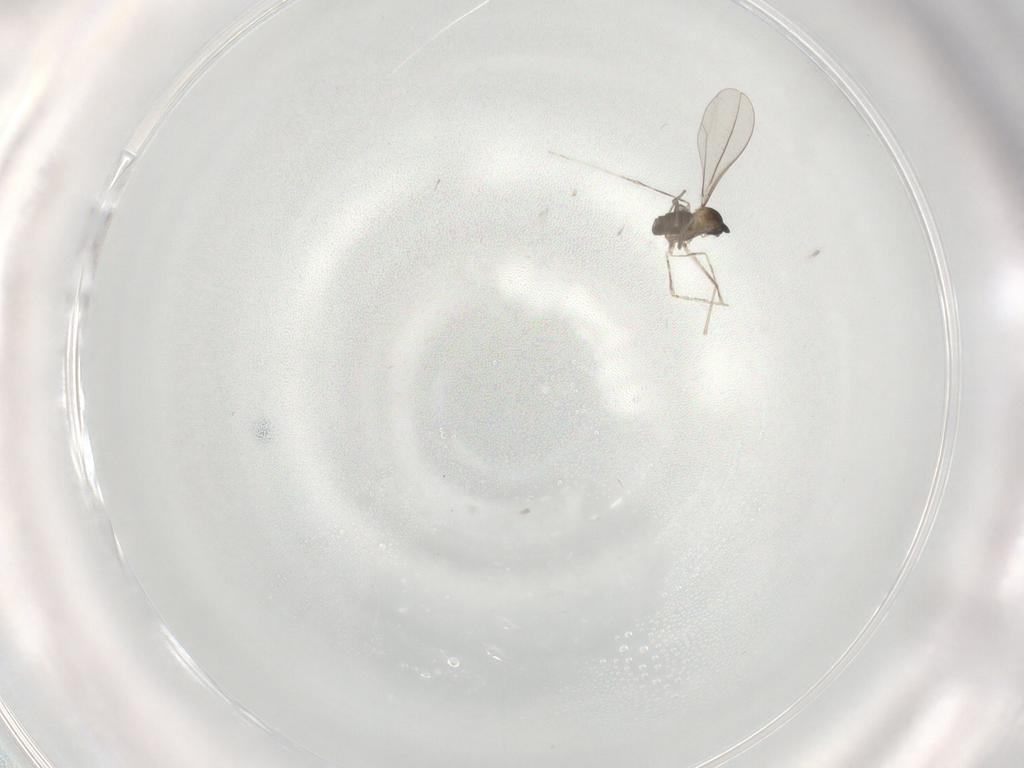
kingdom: Animalia
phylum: Arthropoda
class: Insecta
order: Diptera
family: Cecidomyiidae
